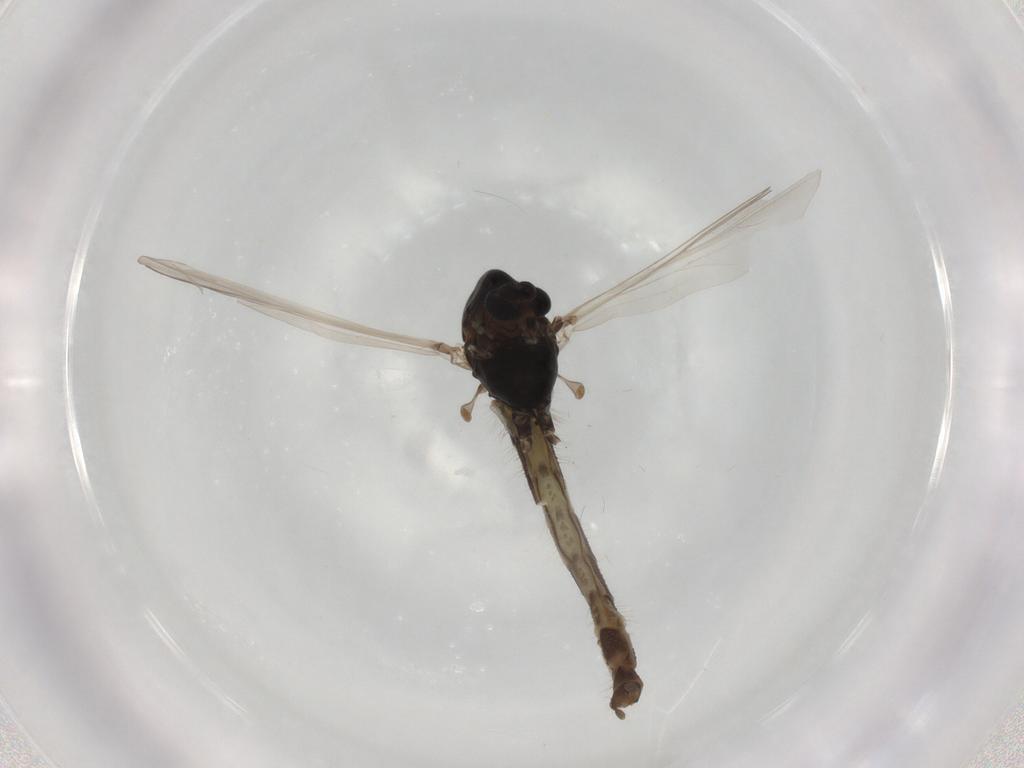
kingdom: Animalia
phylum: Arthropoda
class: Insecta
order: Diptera
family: Chironomidae
